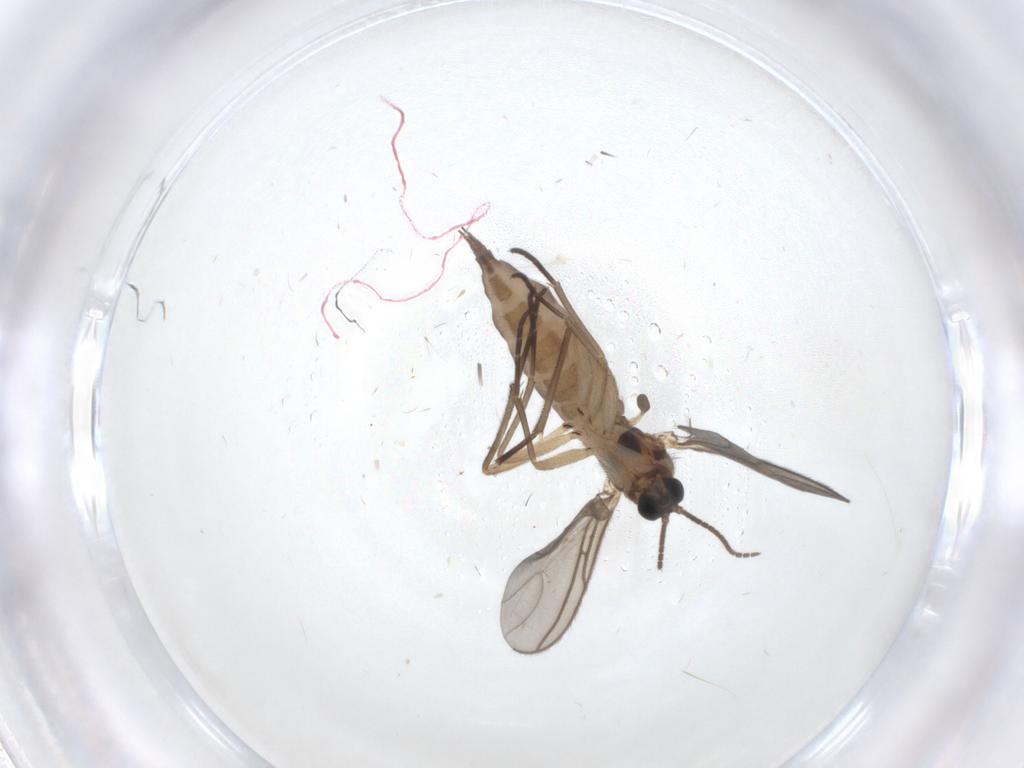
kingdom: Animalia
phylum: Arthropoda
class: Insecta
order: Diptera
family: Sciaridae
